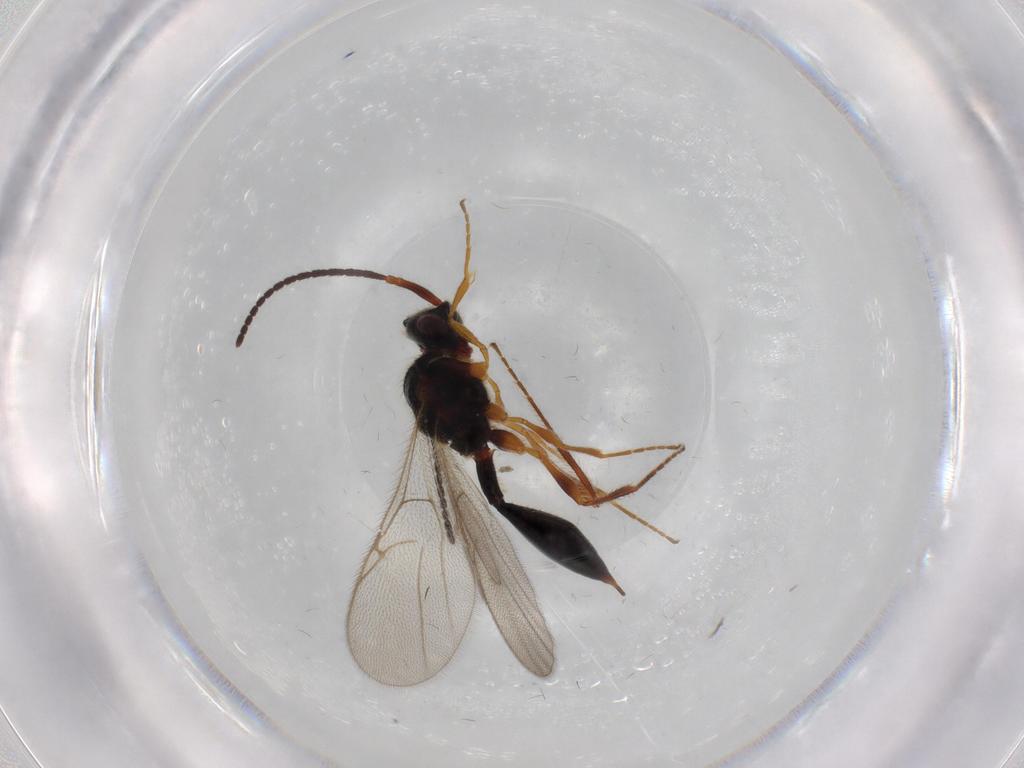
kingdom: Animalia
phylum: Arthropoda
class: Insecta
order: Hymenoptera
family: Diapriidae
